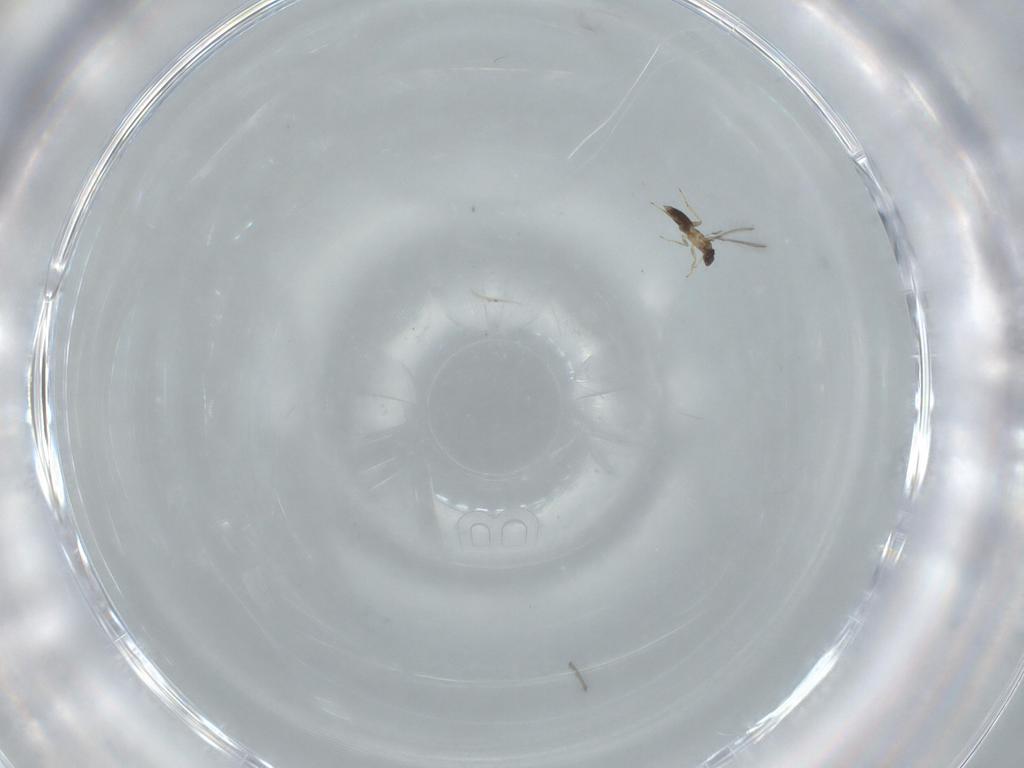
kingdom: Animalia
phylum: Arthropoda
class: Insecta
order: Hymenoptera
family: Mymaridae
